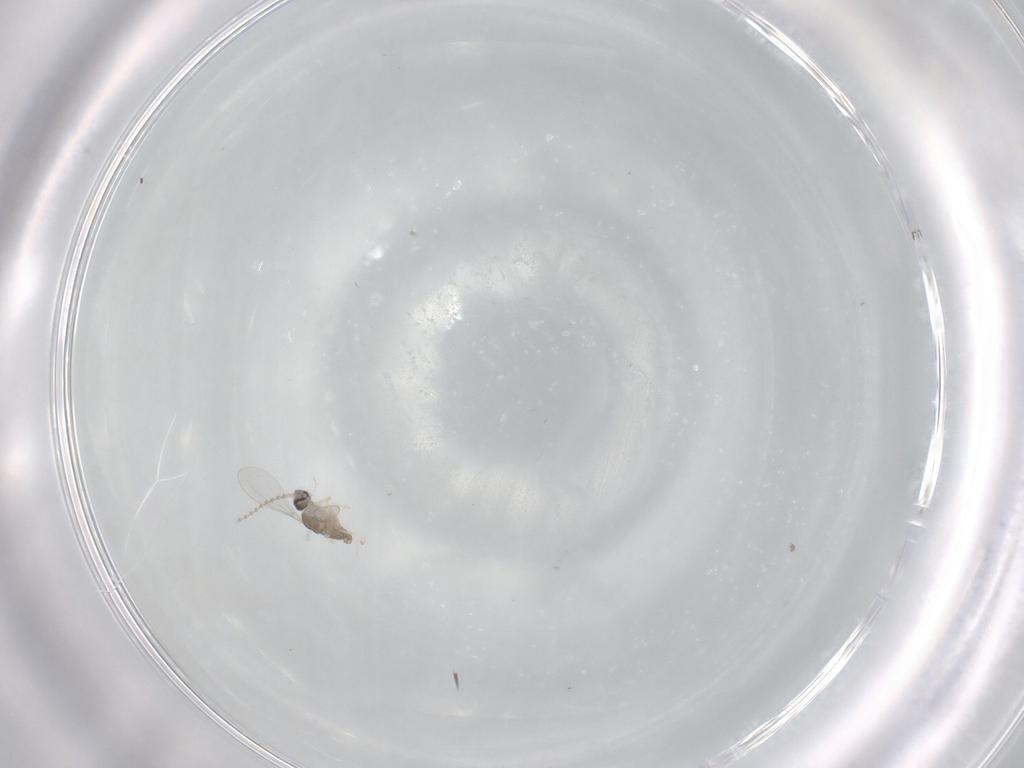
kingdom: Animalia
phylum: Arthropoda
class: Insecta
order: Diptera
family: Cecidomyiidae
